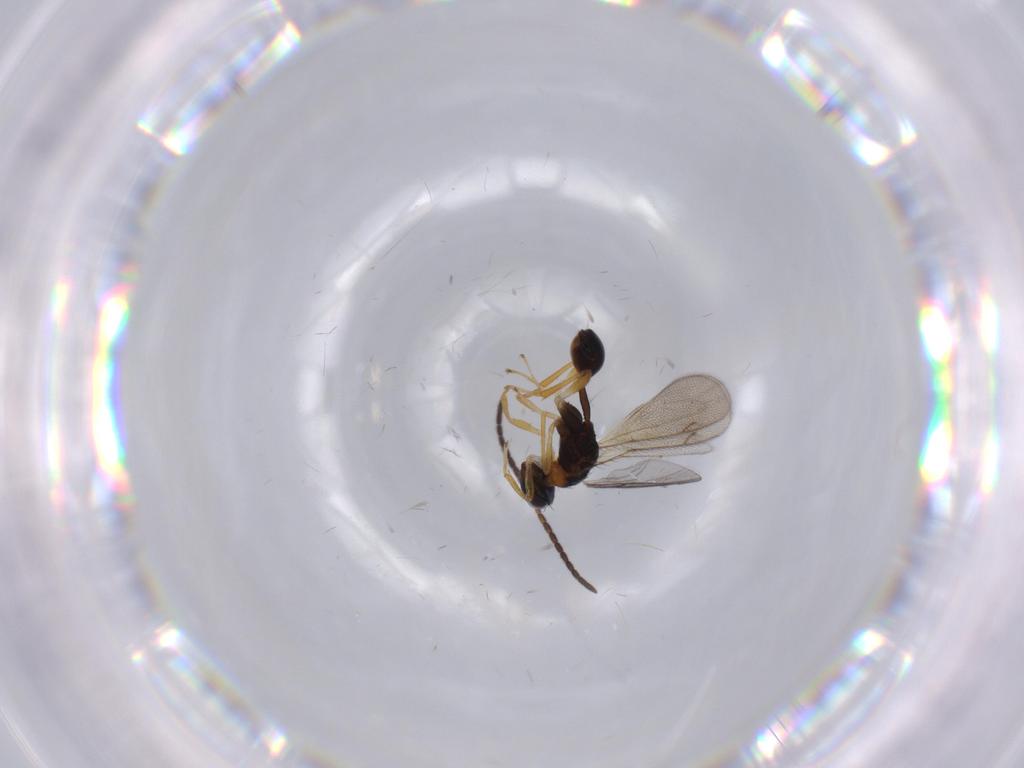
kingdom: Animalia
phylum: Arthropoda
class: Insecta
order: Hymenoptera
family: Diparidae
